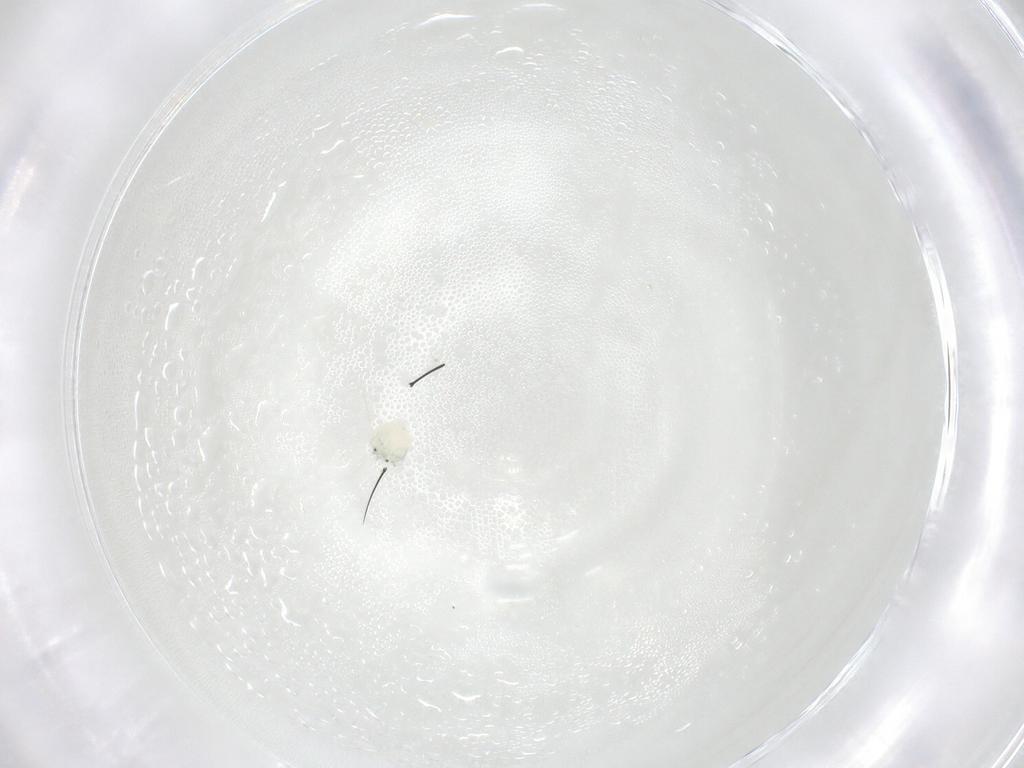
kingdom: Animalia
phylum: Arthropoda
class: Arachnida
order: Trombidiformes
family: Arrenuridae
